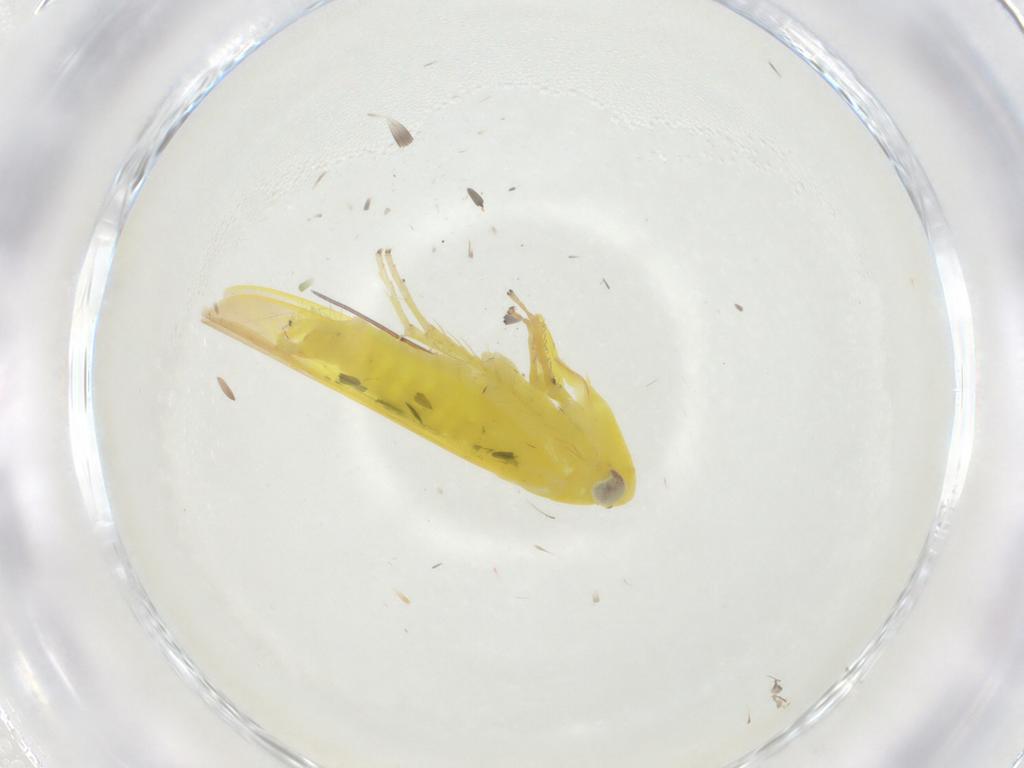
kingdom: Animalia
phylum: Arthropoda
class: Insecta
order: Hemiptera
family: Cicadellidae
